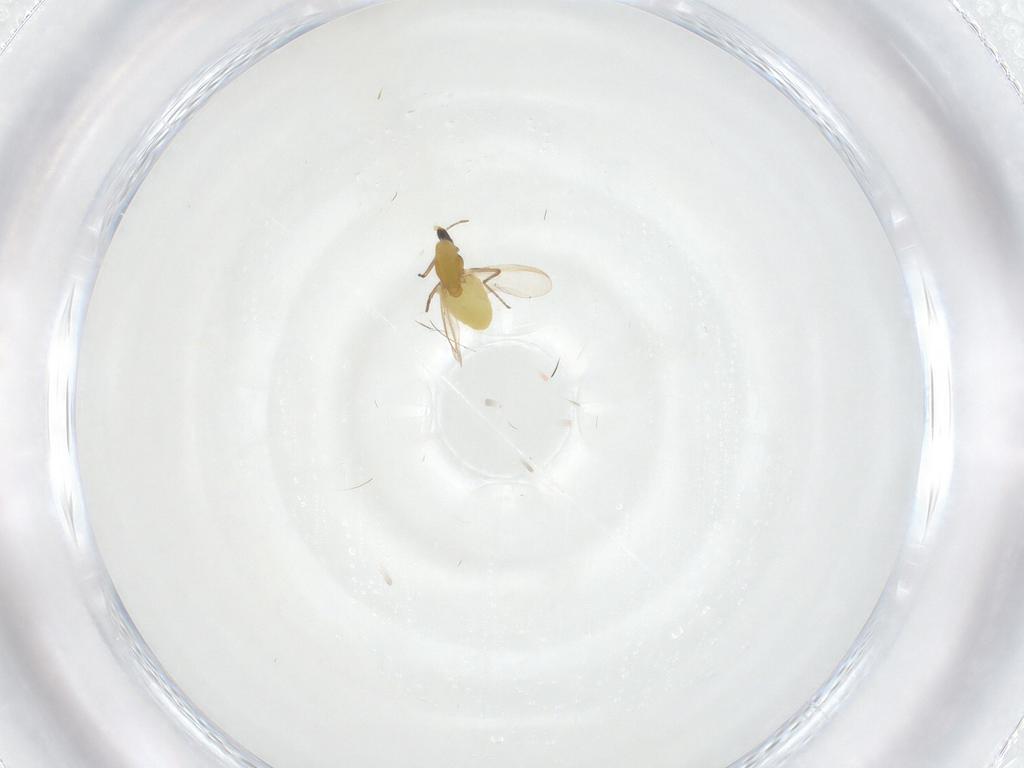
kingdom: Animalia
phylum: Arthropoda
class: Insecta
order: Diptera
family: Chironomidae
